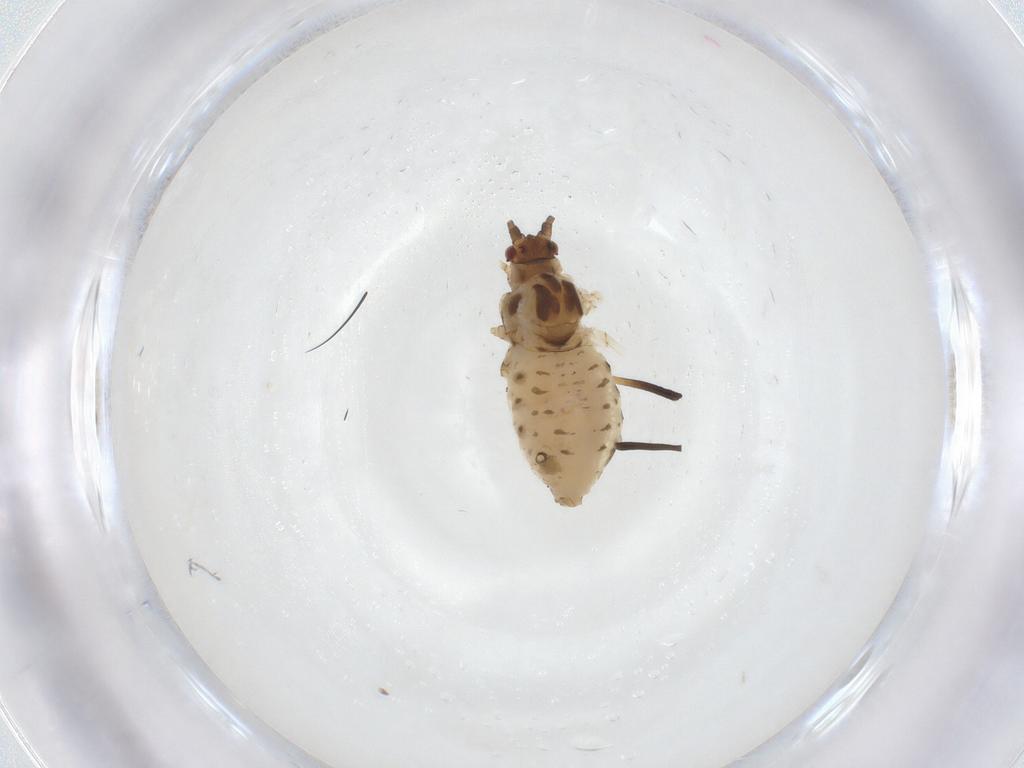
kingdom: Animalia
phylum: Arthropoda
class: Insecta
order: Hemiptera
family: Aphididae
